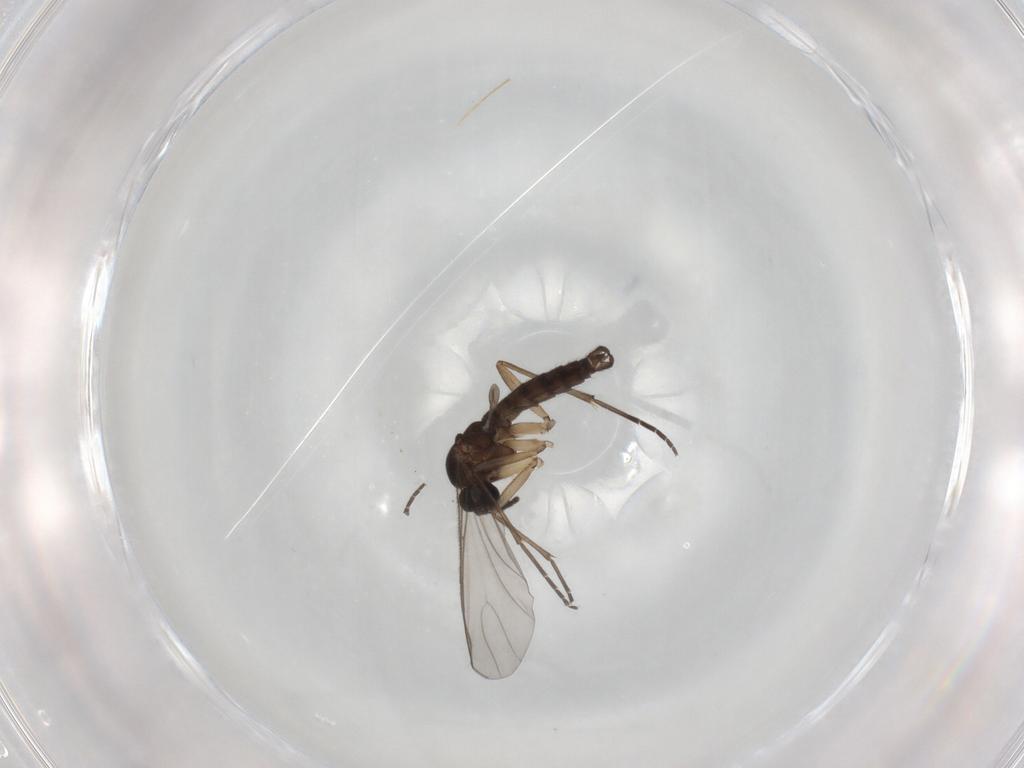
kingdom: Animalia
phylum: Arthropoda
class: Insecta
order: Diptera
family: Sciaridae
